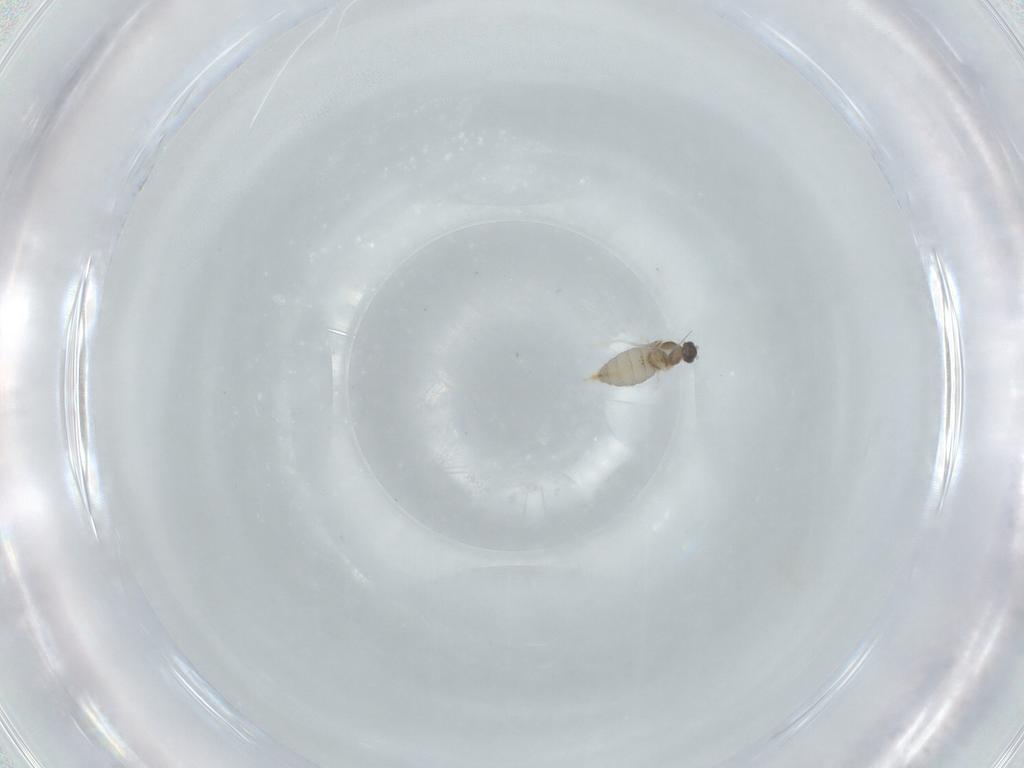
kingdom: Animalia
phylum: Arthropoda
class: Insecta
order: Diptera
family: Cecidomyiidae
